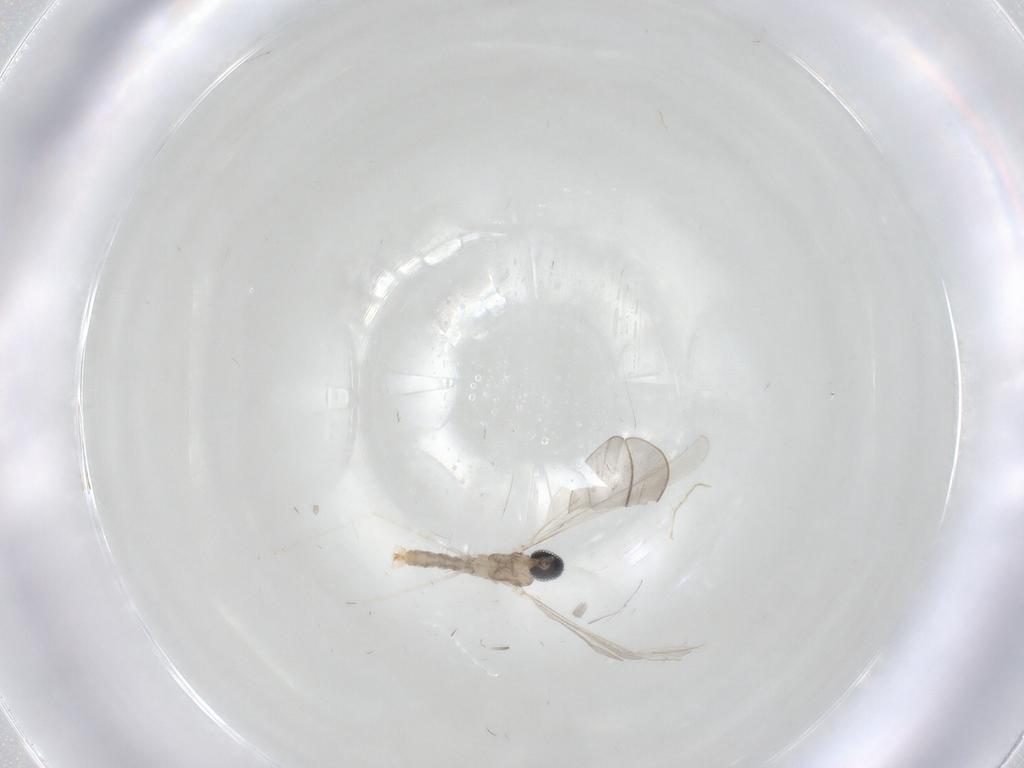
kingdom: Animalia
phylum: Arthropoda
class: Insecta
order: Diptera
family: Cecidomyiidae
